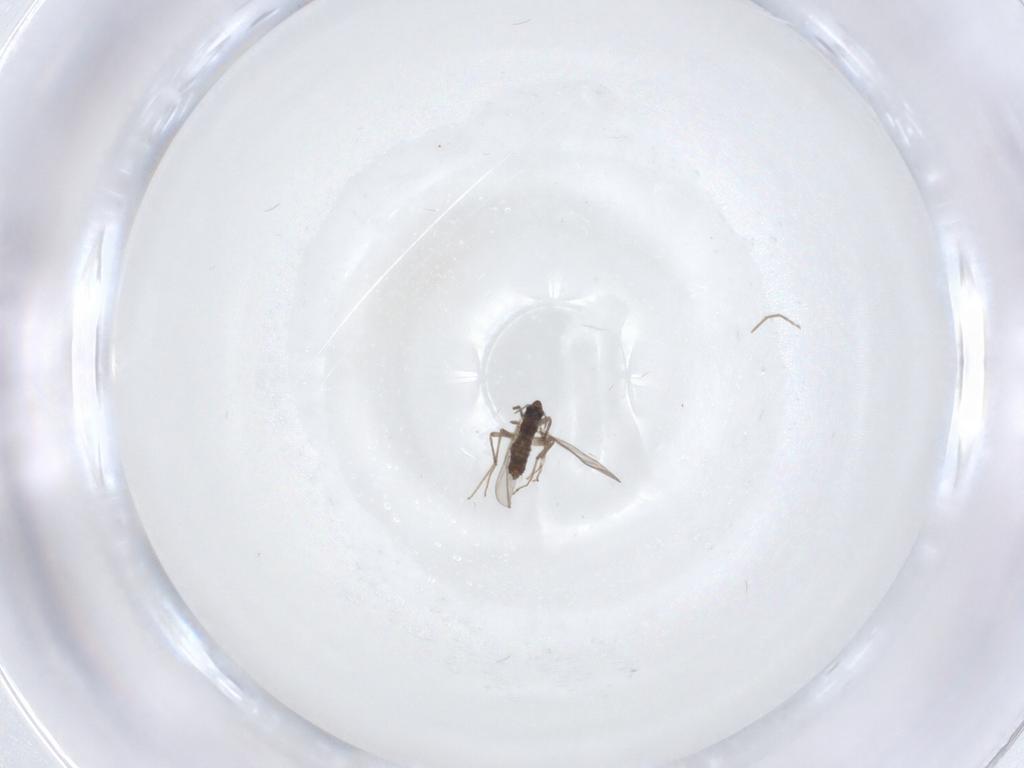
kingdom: Animalia
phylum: Arthropoda
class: Insecta
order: Diptera
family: Chironomidae
